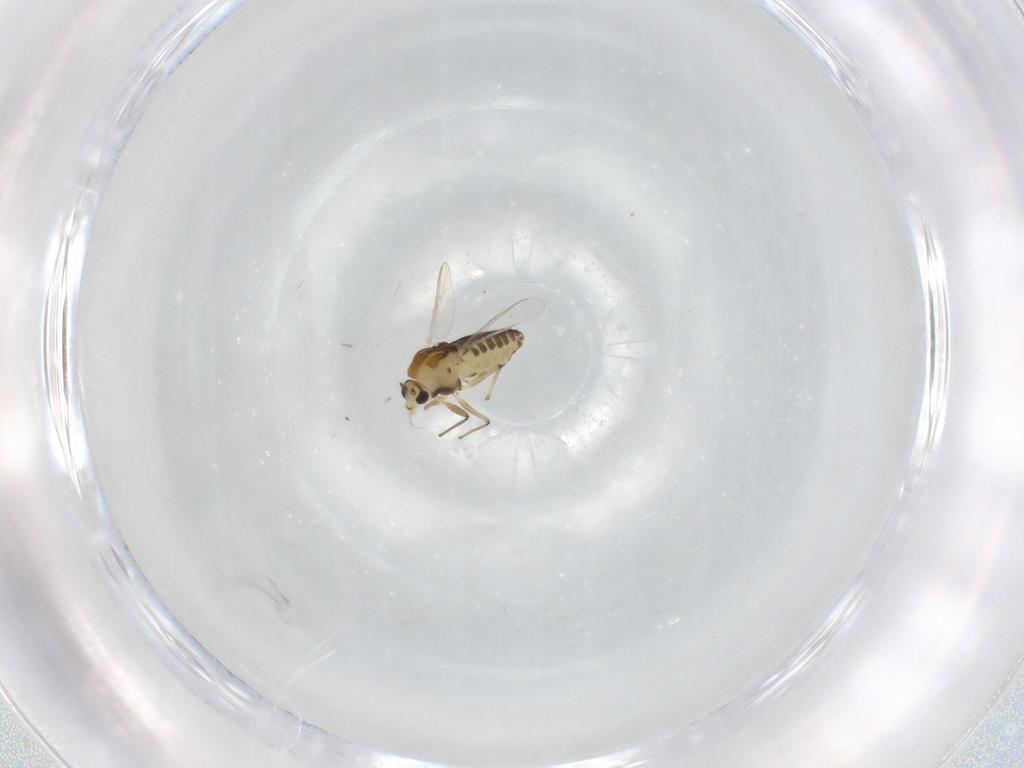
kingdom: Animalia
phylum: Arthropoda
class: Insecta
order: Diptera
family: Chironomidae
